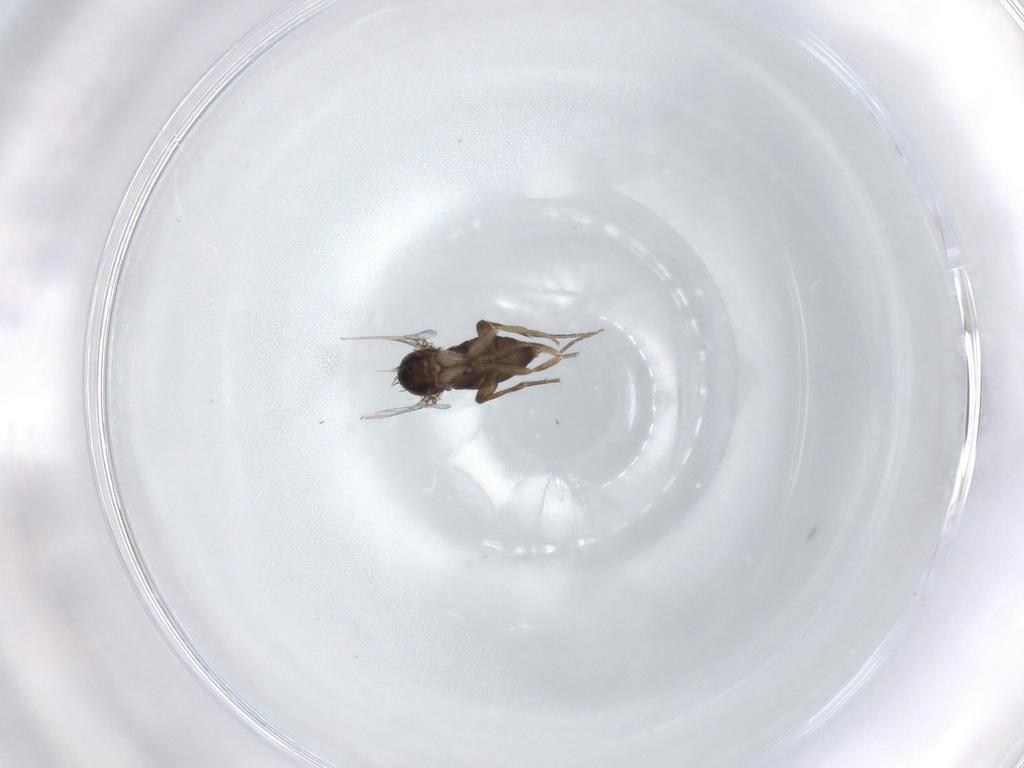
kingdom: Animalia
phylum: Arthropoda
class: Insecta
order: Diptera
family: Phoridae
